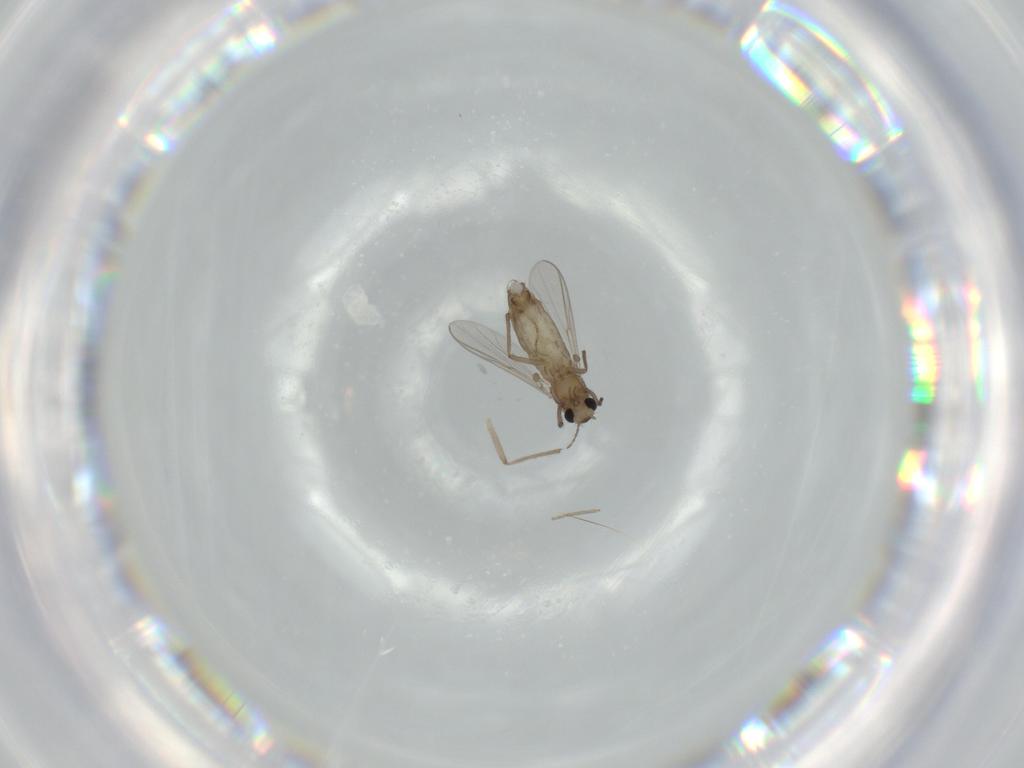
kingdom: Animalia
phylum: Arthropoda
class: Insecta
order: Diptera
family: Chironomidae
